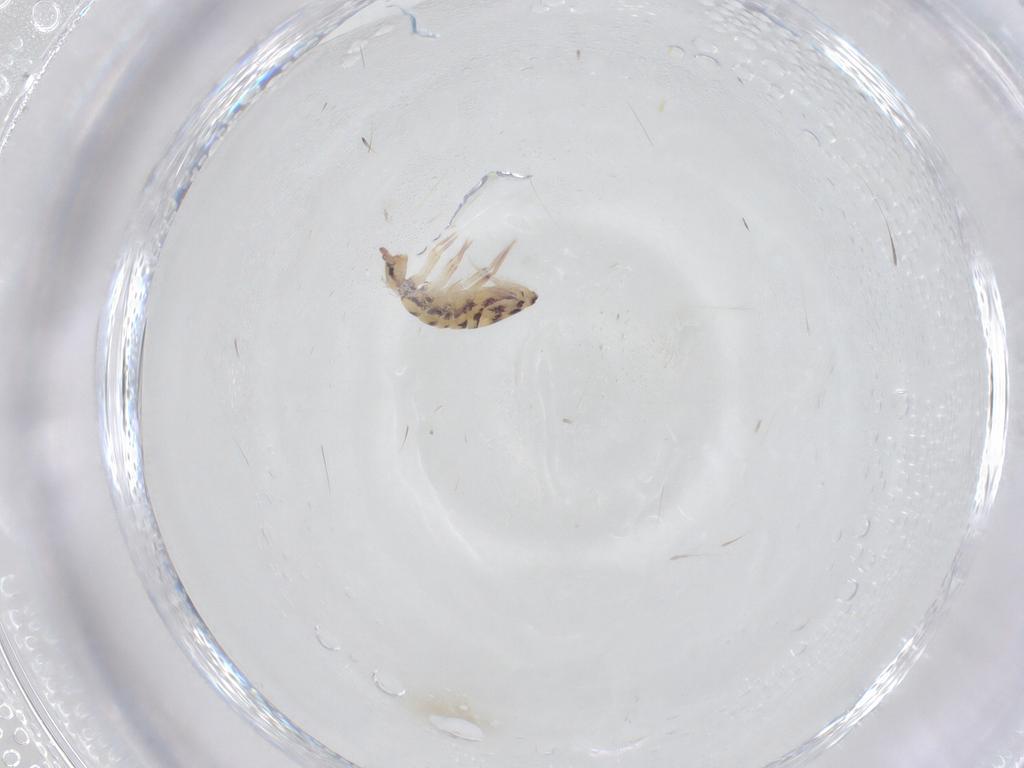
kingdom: Animalia
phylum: Arthropoda
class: Collembola
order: Entomobryomorpha
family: Entomobryidae
